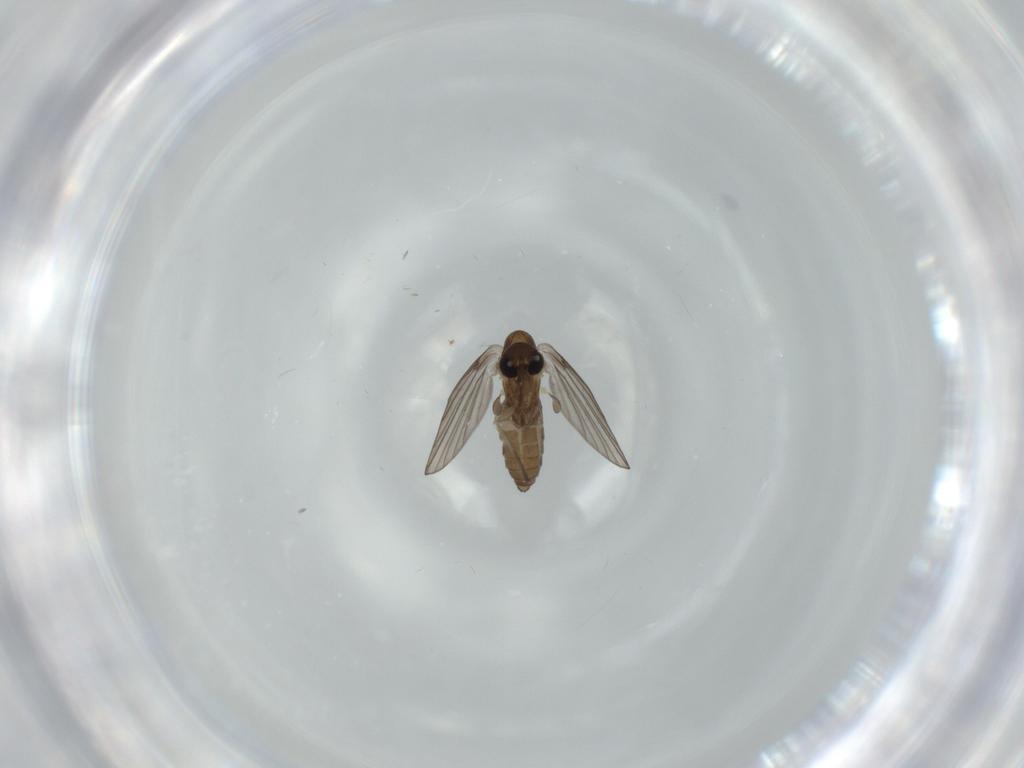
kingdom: Animalia
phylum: Arthropoda
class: Insecta
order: Diptera
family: Psychodidae
